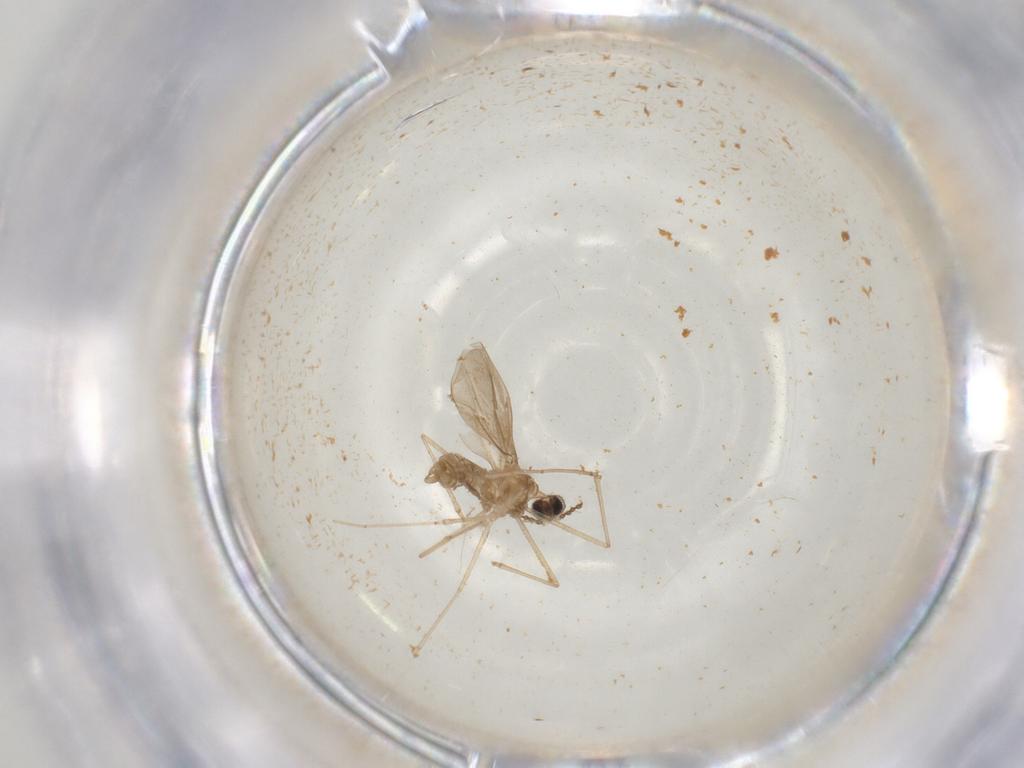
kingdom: Animalia
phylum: Arthropoda
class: Insecta
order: Diptera
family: Cecidomyiidae
